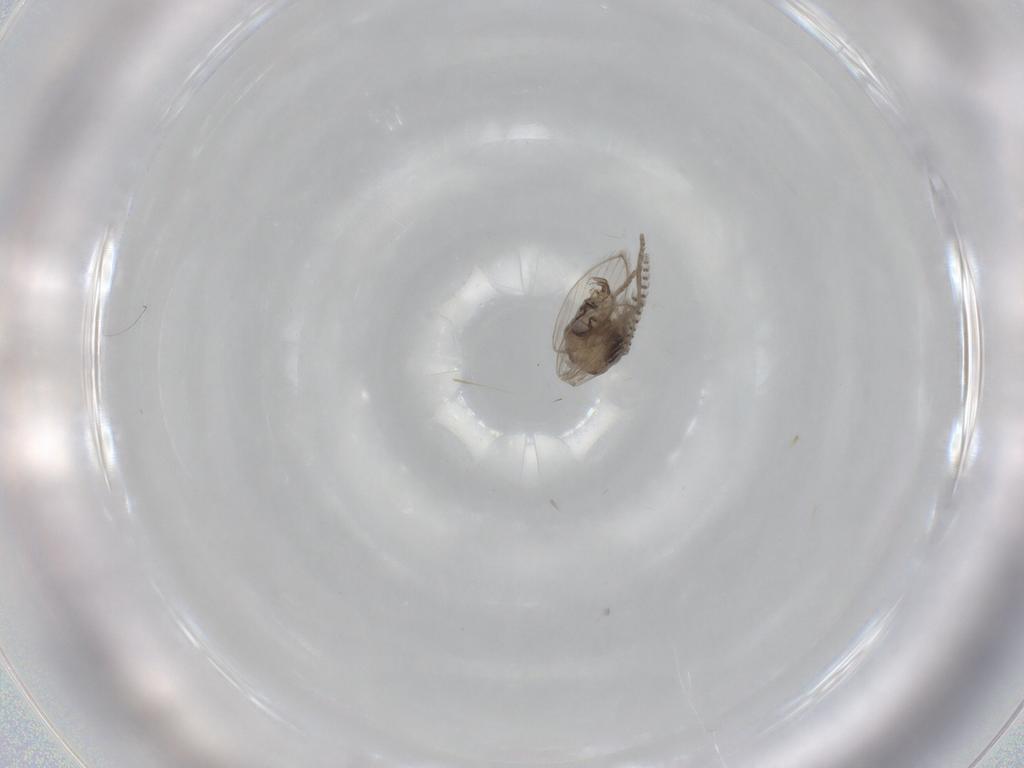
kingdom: Animalia
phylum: Arthropoda
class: Insecta
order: Diptera
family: Psychodidae
